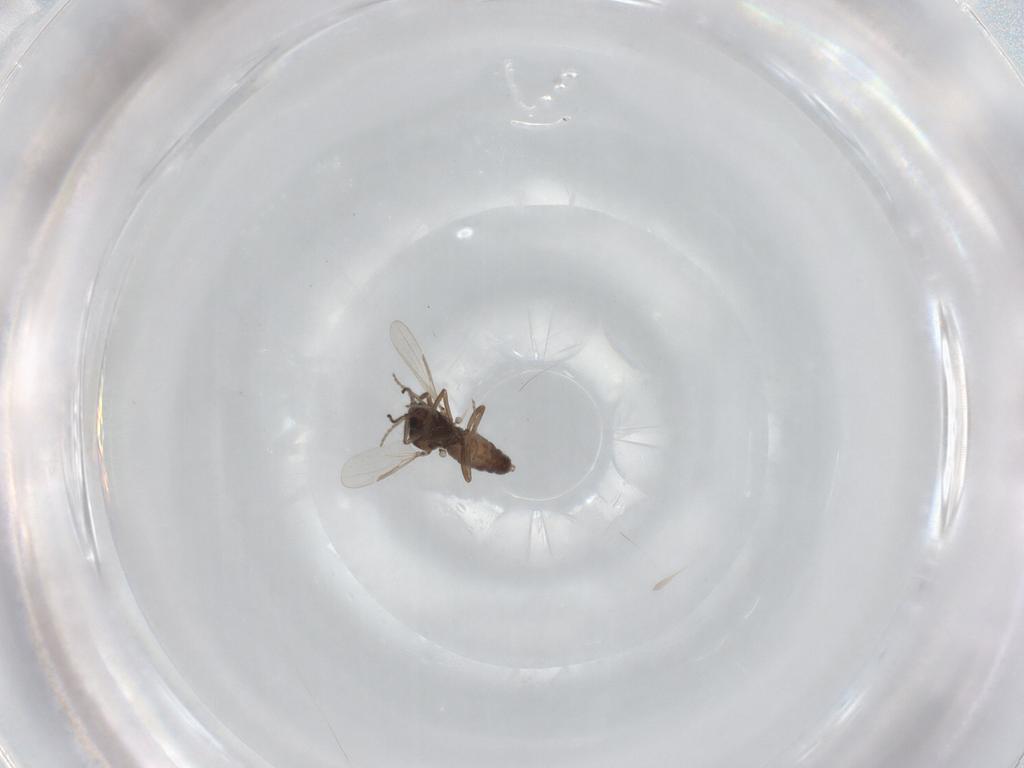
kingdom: Animalia
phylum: Arthropoda
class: Insecta
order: Diptera
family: Ceratopogonidae
